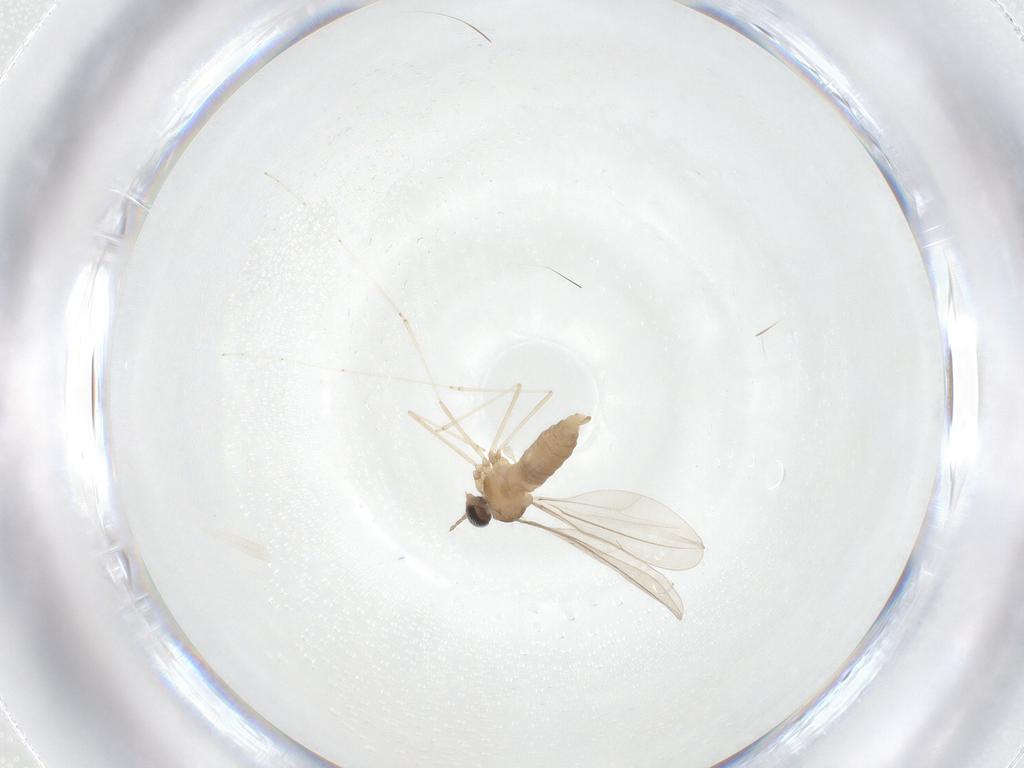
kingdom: Animalia
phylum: Arthropoda
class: Insecta
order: Diptera
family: Cecidomyiidae
